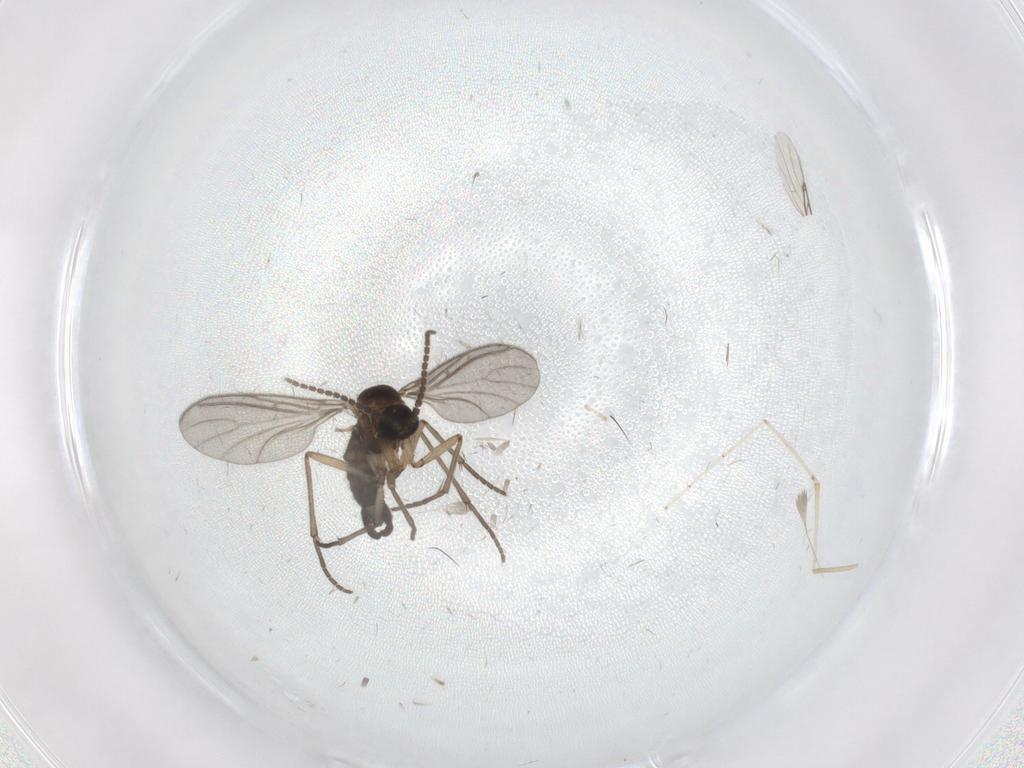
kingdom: Animalia
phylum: Arthropoda
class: Insecta
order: Diptera
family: Sciaridae
